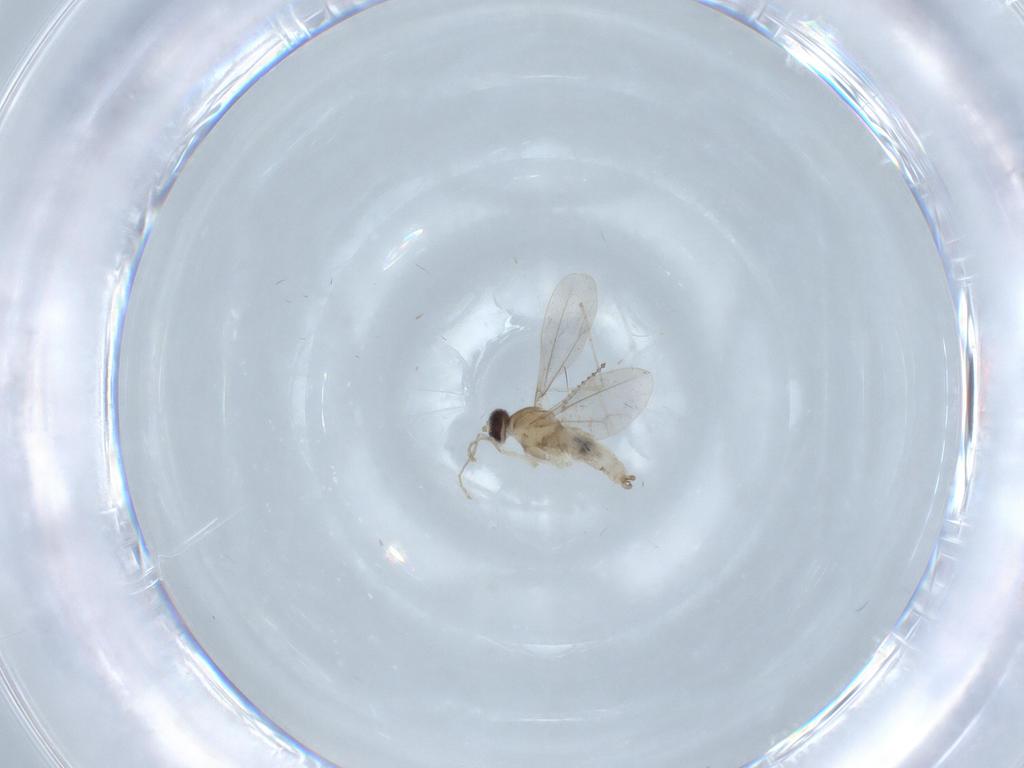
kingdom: Animalia
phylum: Arthropoda
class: Insecta
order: Diptera
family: Cecidomyiidae
